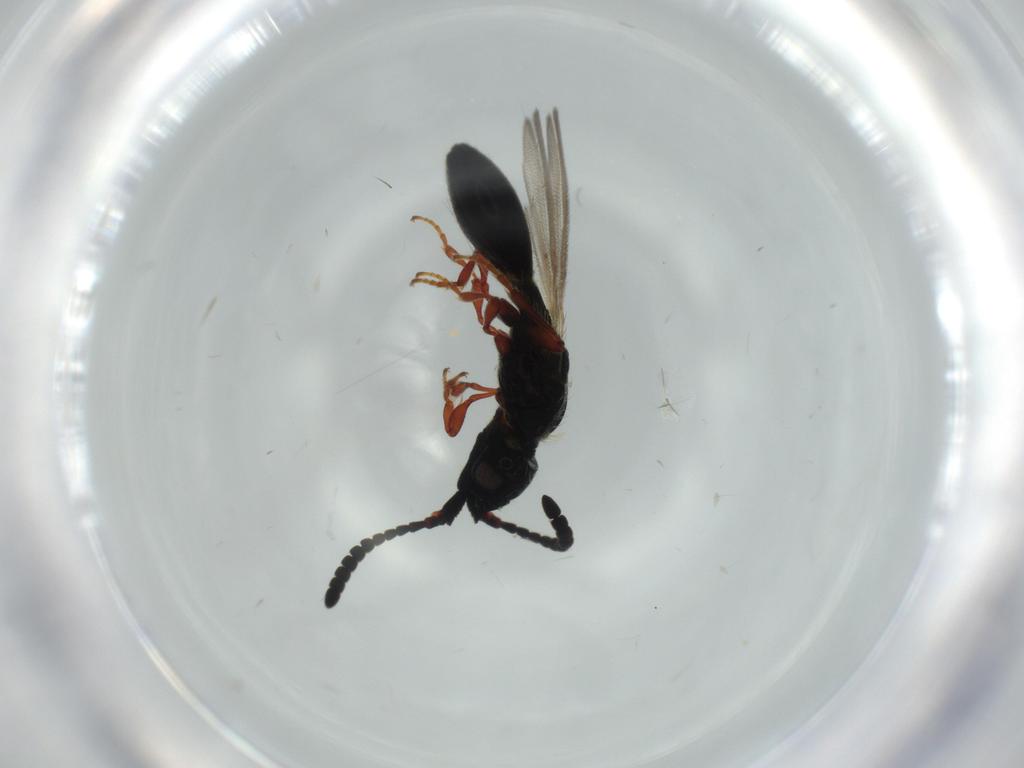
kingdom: Animalia
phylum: Arthropoda
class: Insecta
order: Hymenoptera
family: Diapriidae
